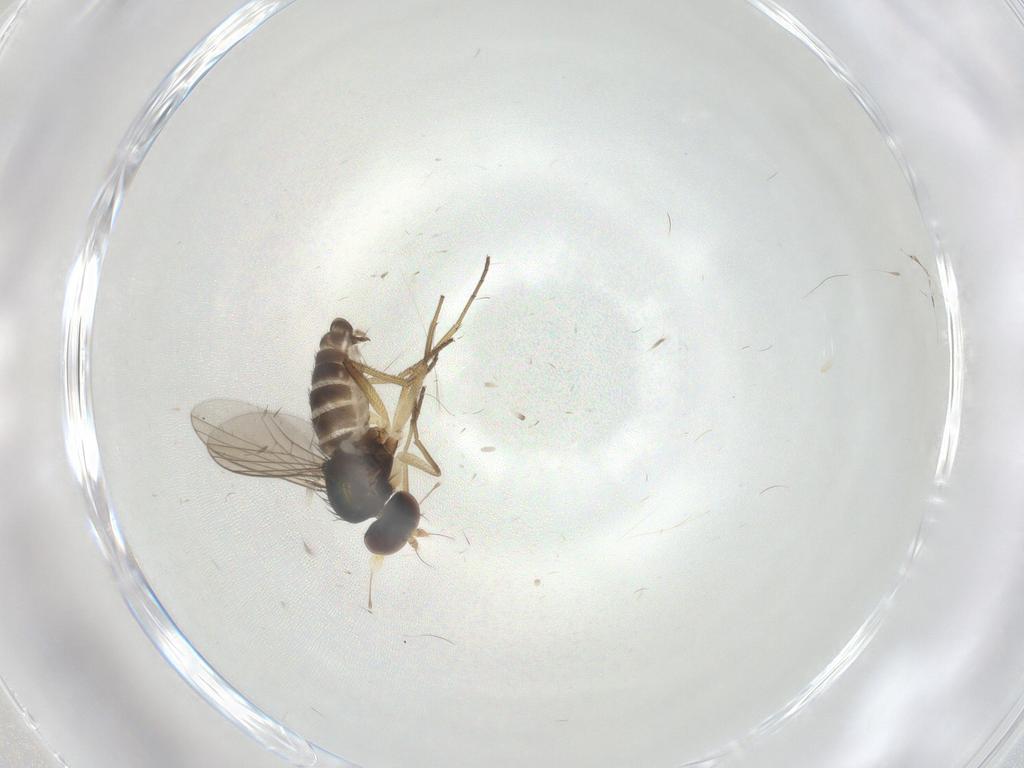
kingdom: Animalia
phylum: Arthropoda
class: Insecta
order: Diptera
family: Dolichopodidae
